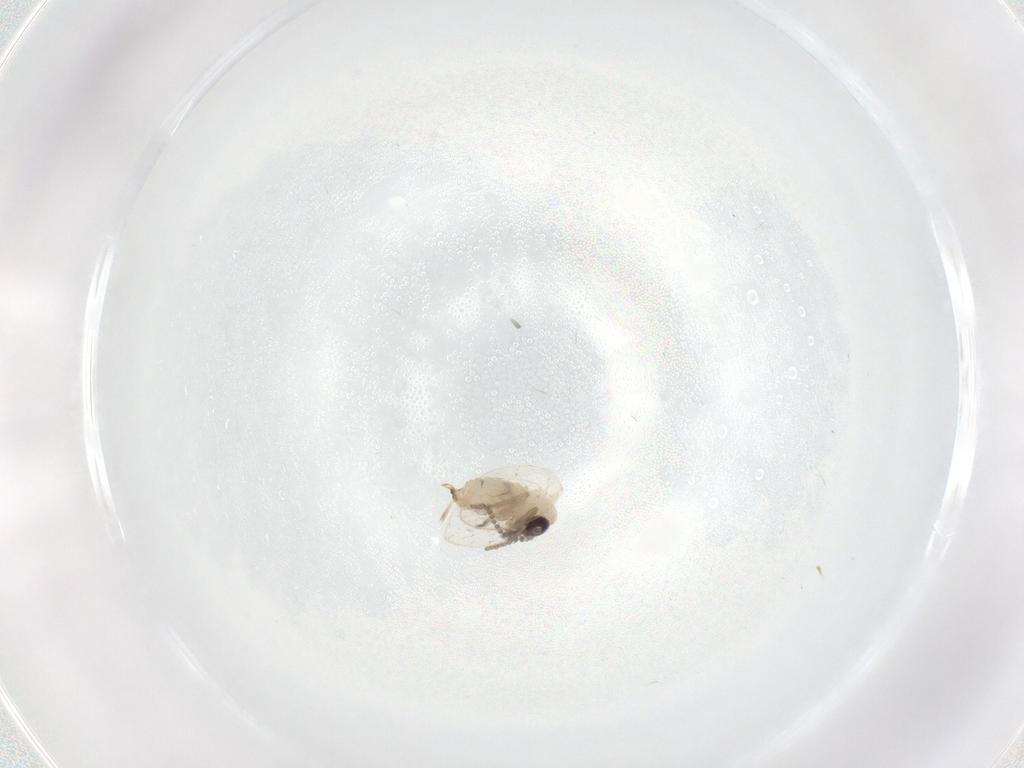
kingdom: Animalia
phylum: Arthropoda
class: Insecta
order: Diptera
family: Psychodidae
